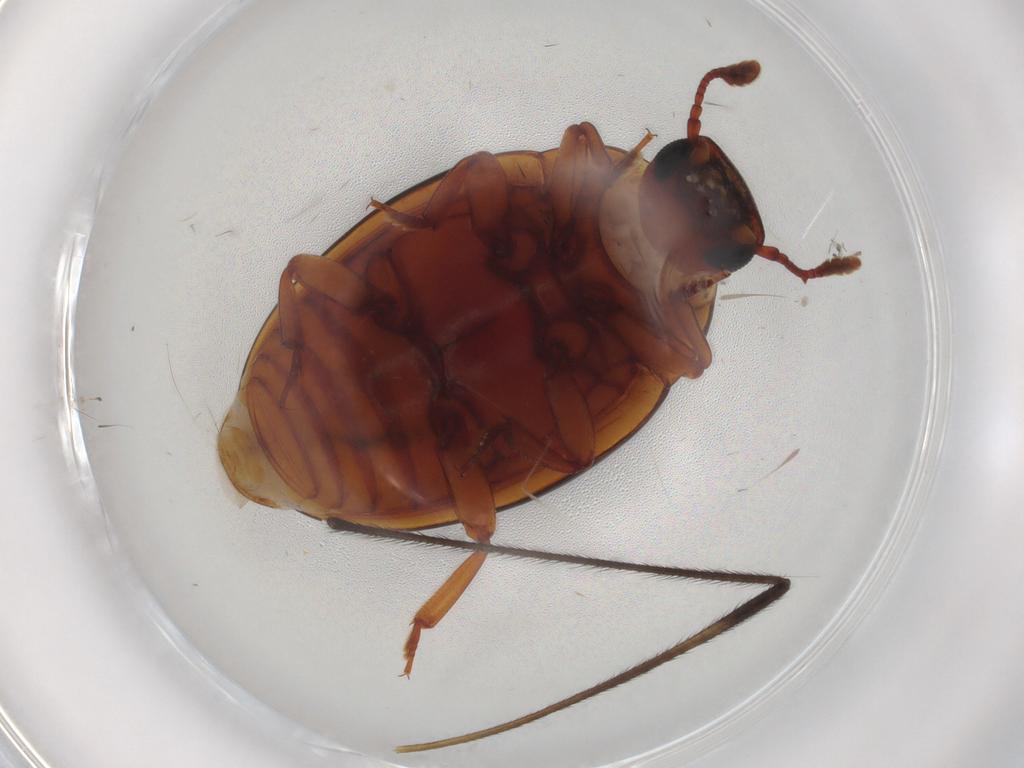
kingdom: Animalia
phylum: Arthropoda
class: Insecta
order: Coleoptera
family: Zopheridae
